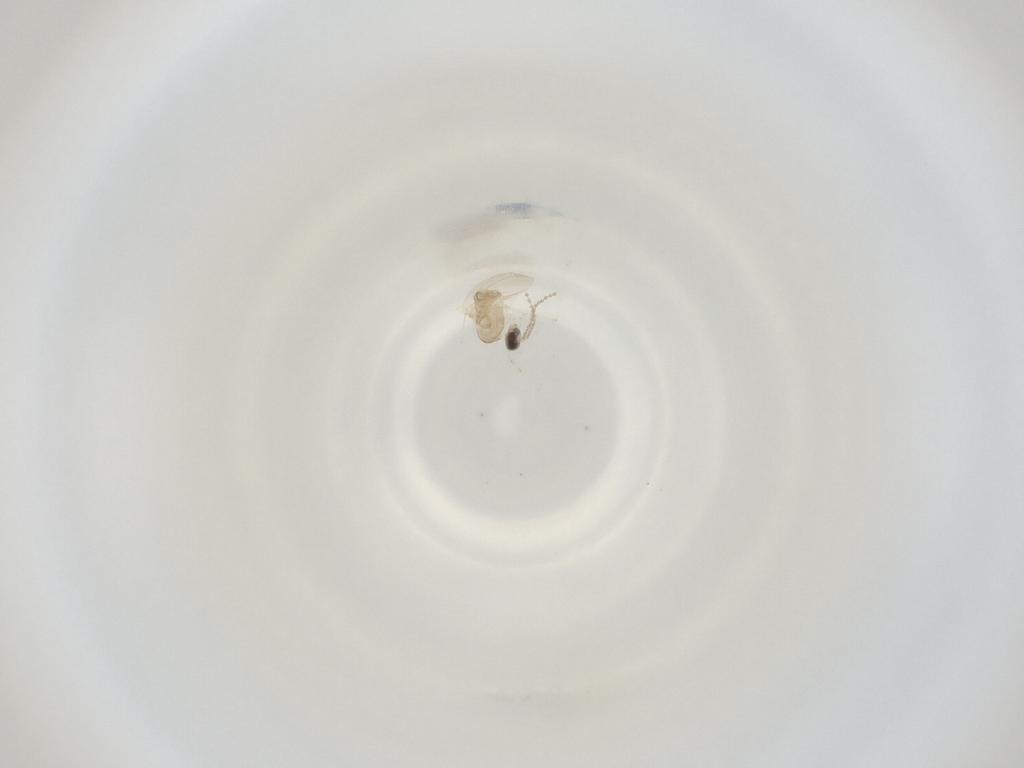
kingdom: Animalia
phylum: Arthropoda
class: Insecta
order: Diptera
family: Cecidomyiidae
